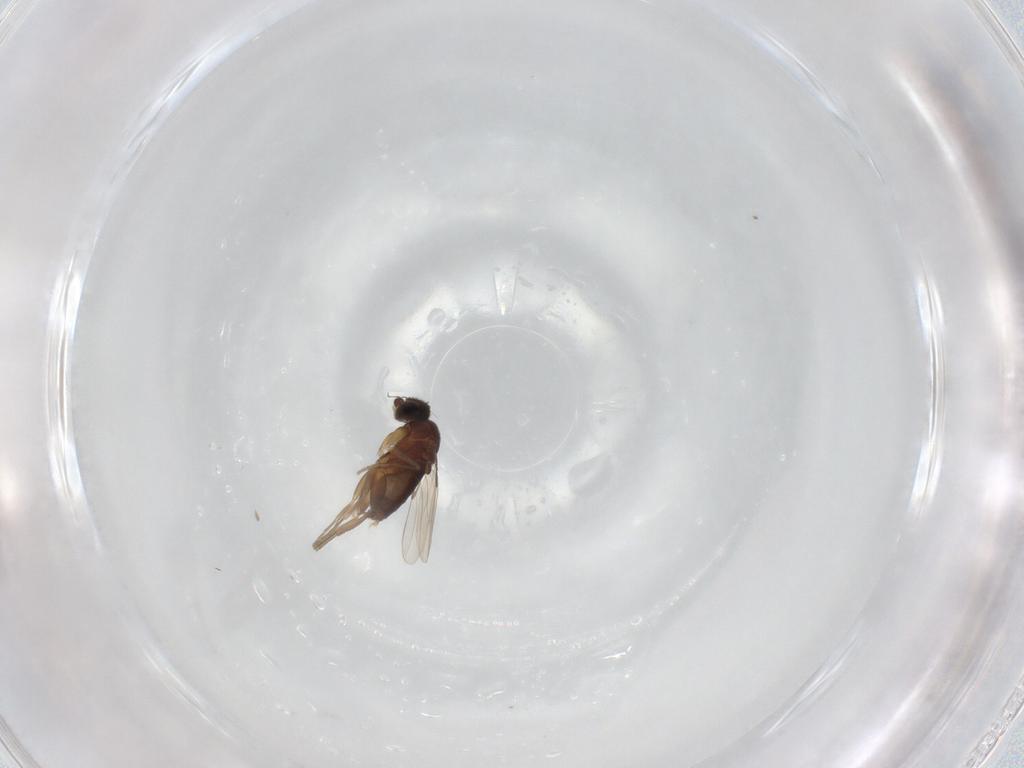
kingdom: Animalia
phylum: Arthropoda
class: Insecta
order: Diptera
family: Phoridae
